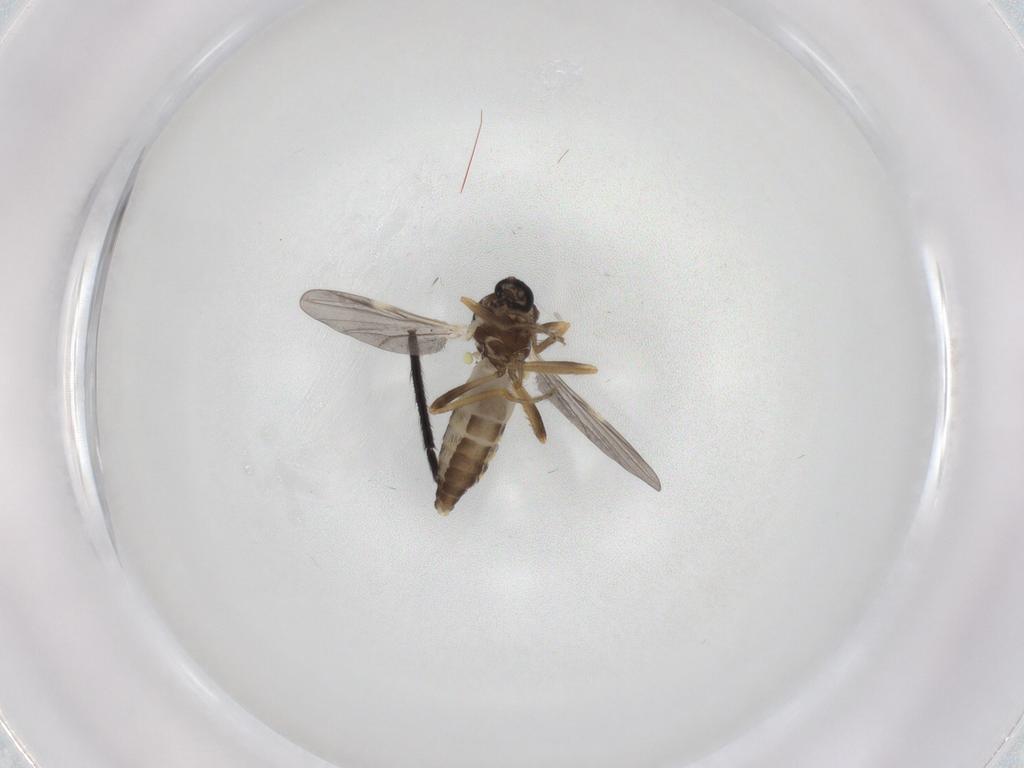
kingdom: Animalia
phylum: Arthropoda
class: Insecta
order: Diptera
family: Ceratopogonidae
